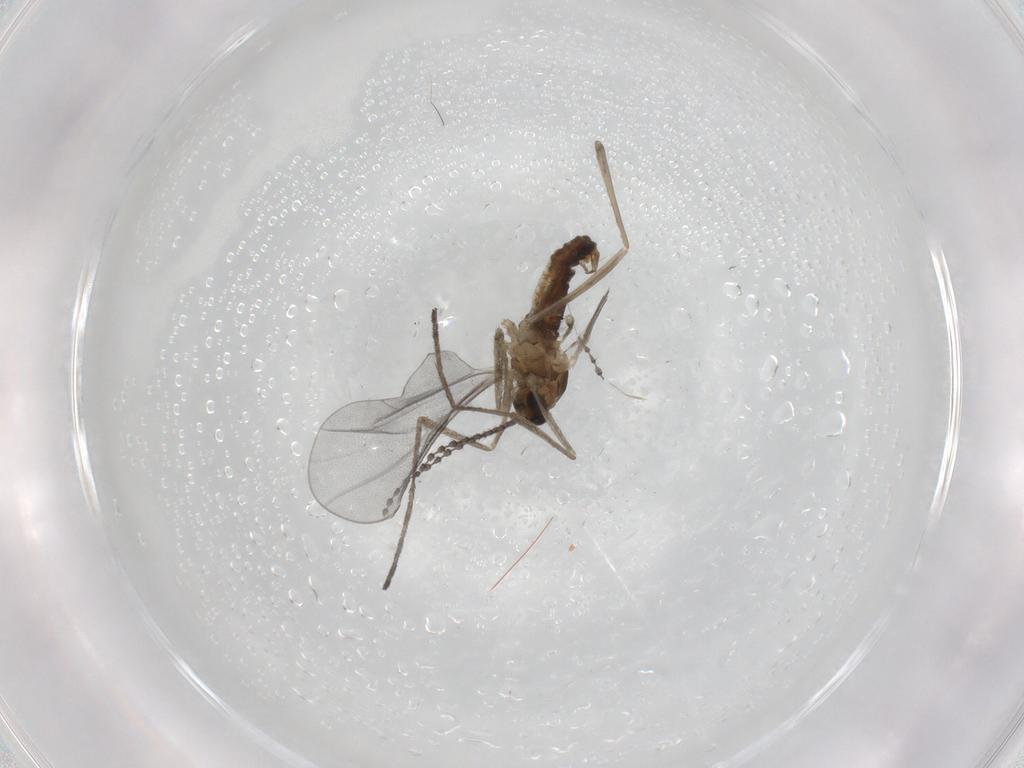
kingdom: Animalia
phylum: Arthropoda
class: Insecta
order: Diptera
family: Cecidomyiidae
